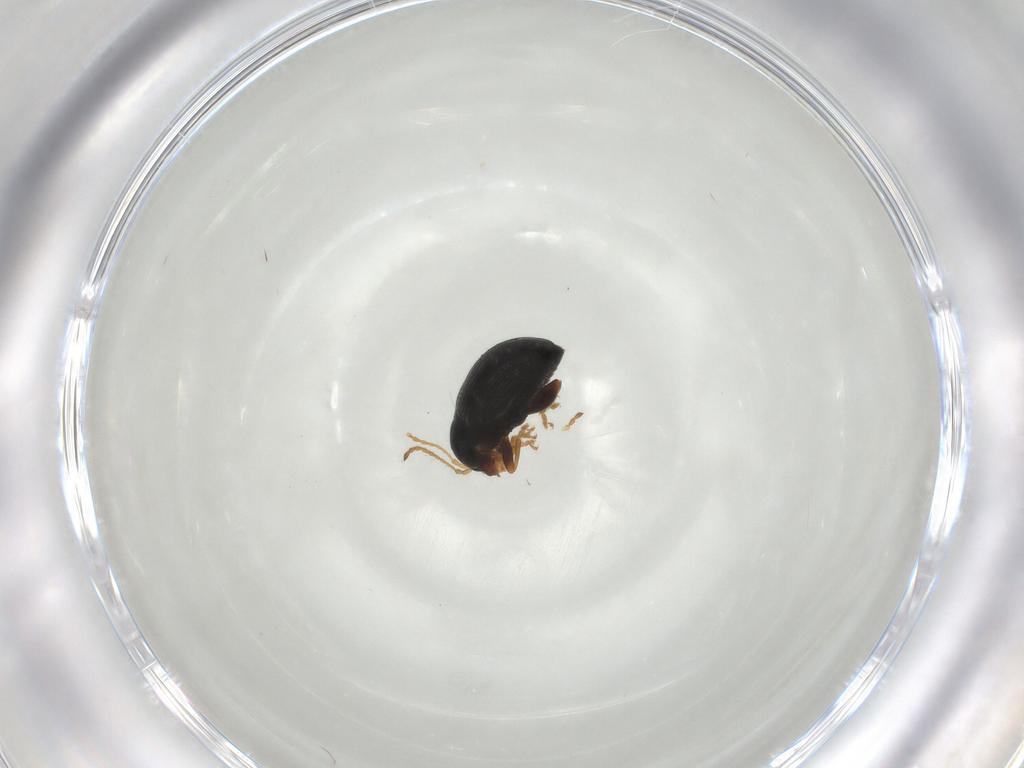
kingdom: Animalia
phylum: Arthropoda
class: Insecta
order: Coleoptera
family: Chrysomelidae
